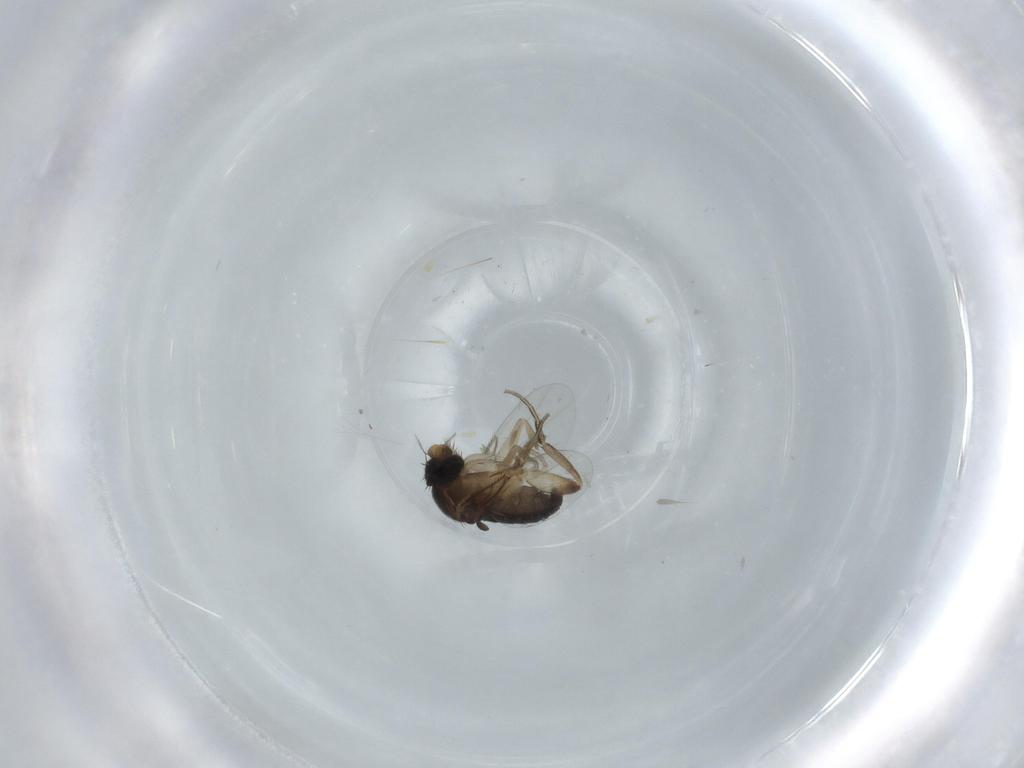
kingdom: Animalia
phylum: Arthropoda
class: Insecta
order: Diptera
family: Phoridae
